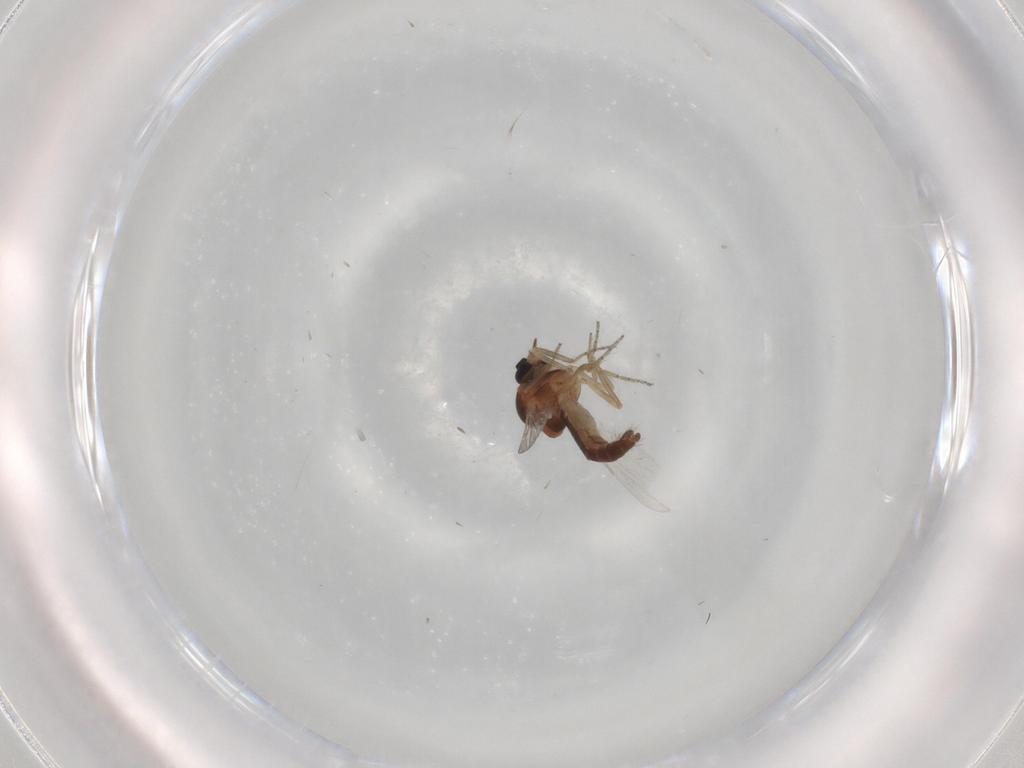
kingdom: Animalia
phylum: Arthropoda
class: Insecta
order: Diptera
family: Ceratopogonidae
